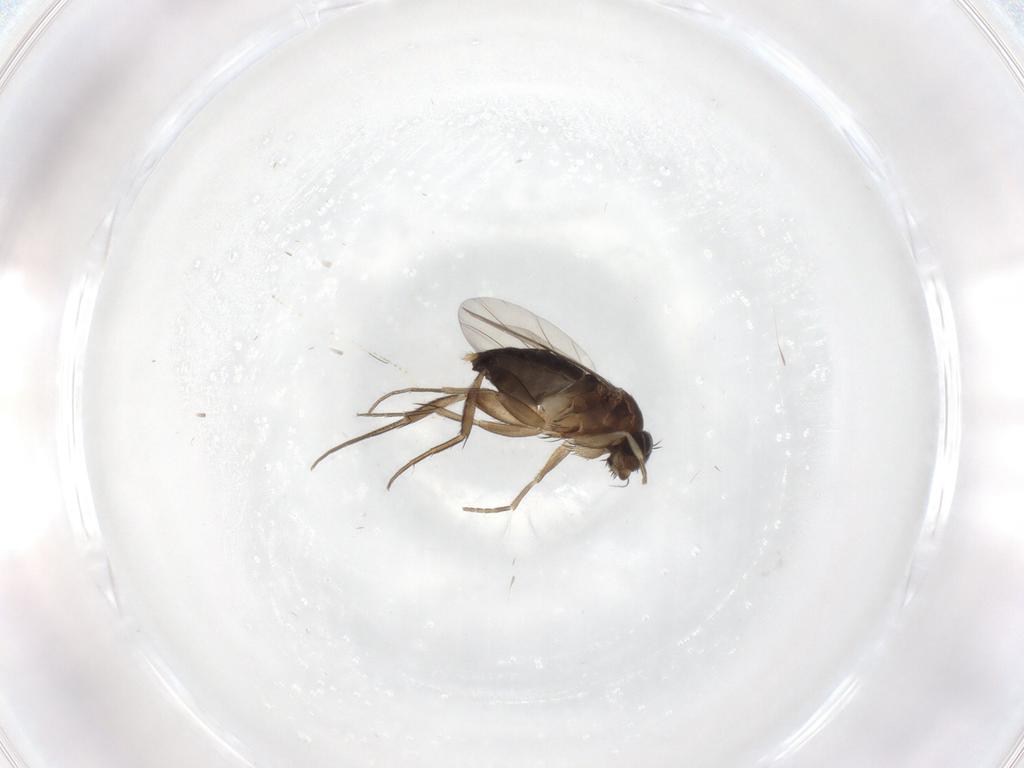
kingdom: Animalia
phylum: Arthropoda
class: Insecta
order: Diptera
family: Phoridae
